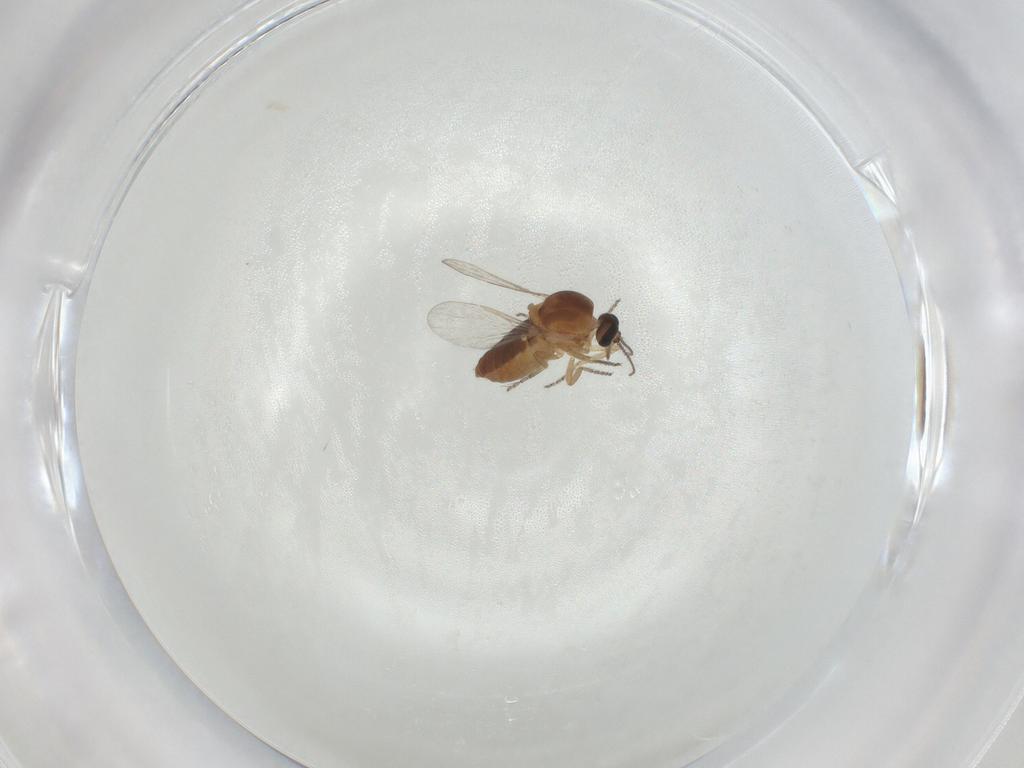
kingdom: Animalia
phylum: Arthropoda
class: Insecta
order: Diptera
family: Ceratopogonidae
